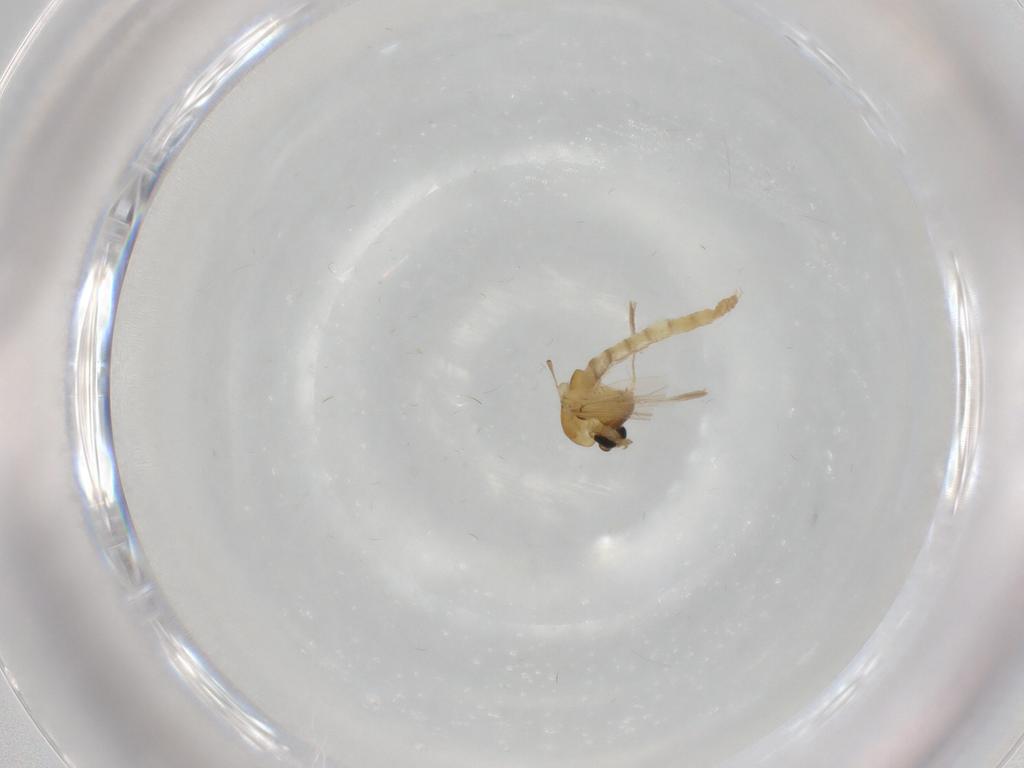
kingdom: Animalia
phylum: Arthropoda
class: Insecta
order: Diptera
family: Chironomidae
